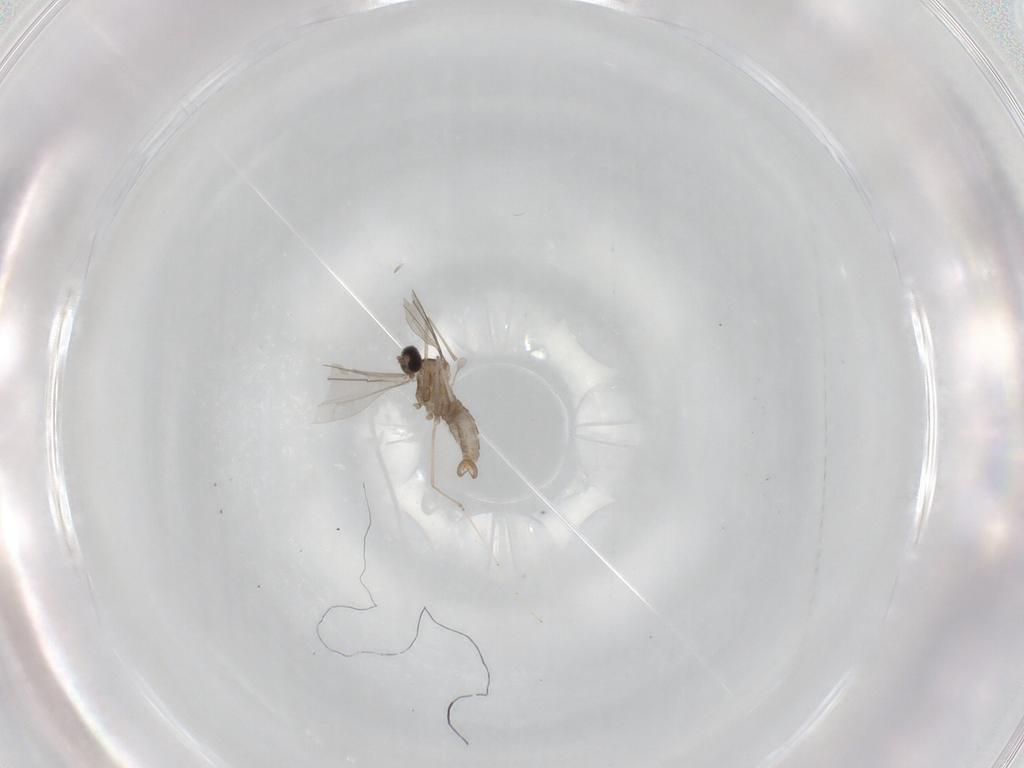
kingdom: Animalia
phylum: Arthropoda
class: Insecta
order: Diptera
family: Cecidomyiidae
